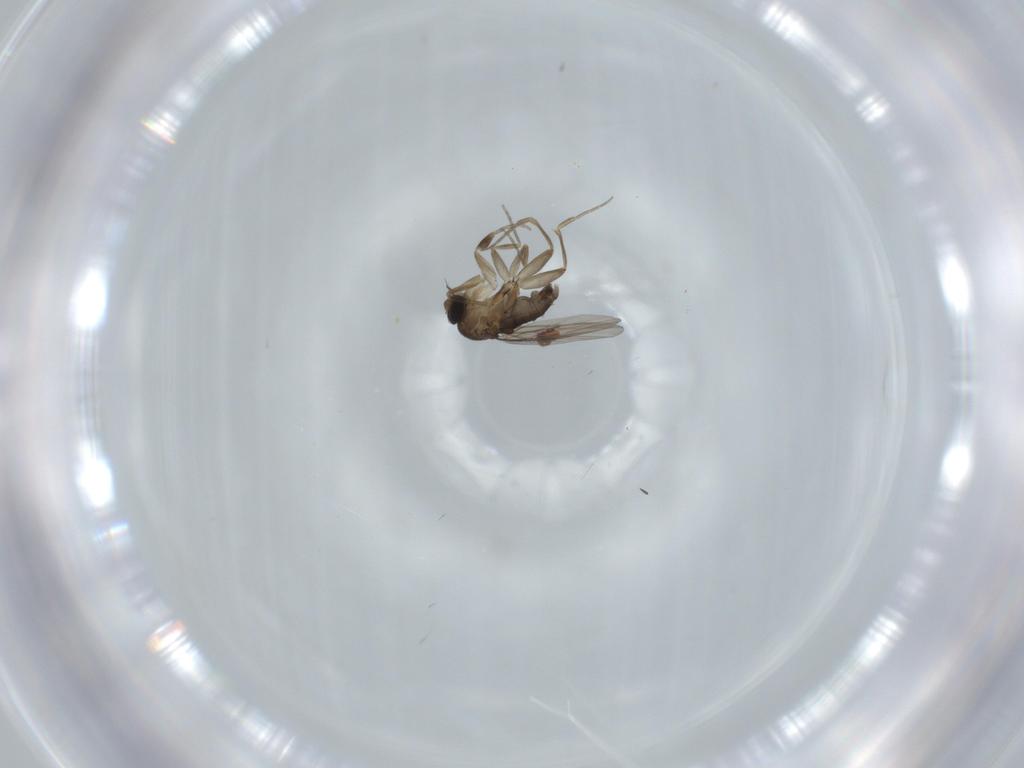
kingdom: Animalia
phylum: Arthropoda
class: Insecta
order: Diptera
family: Phoridae
